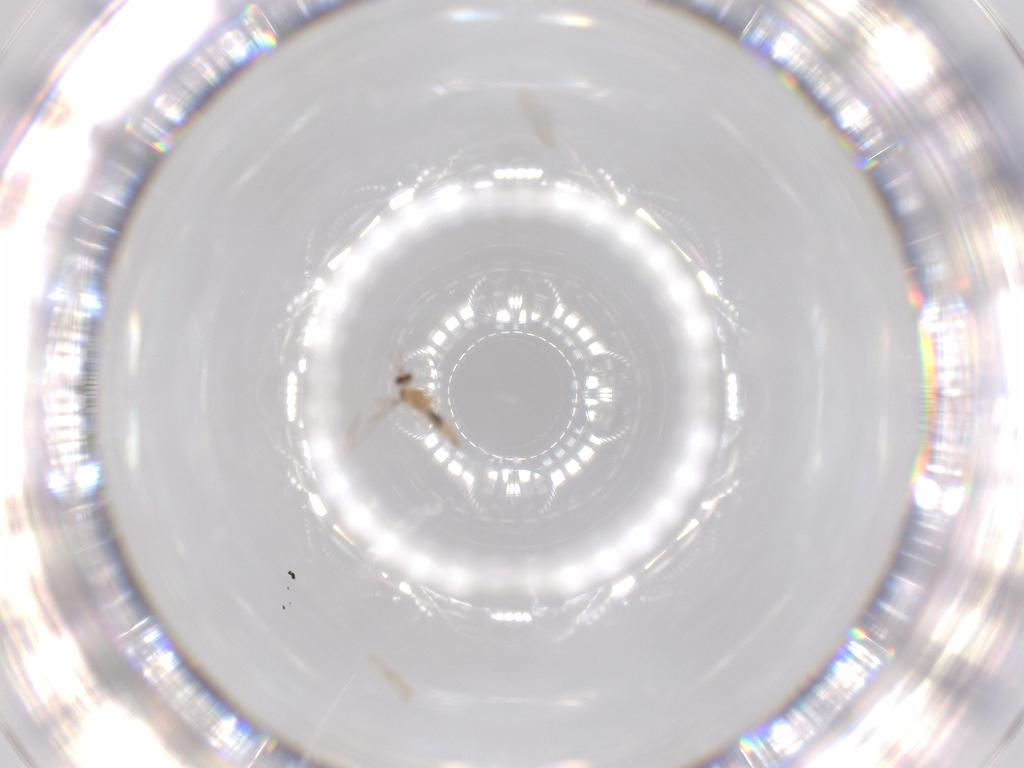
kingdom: Animalia
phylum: Arthropoda
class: Insecta
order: Diptera
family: Cecidomyiidae
